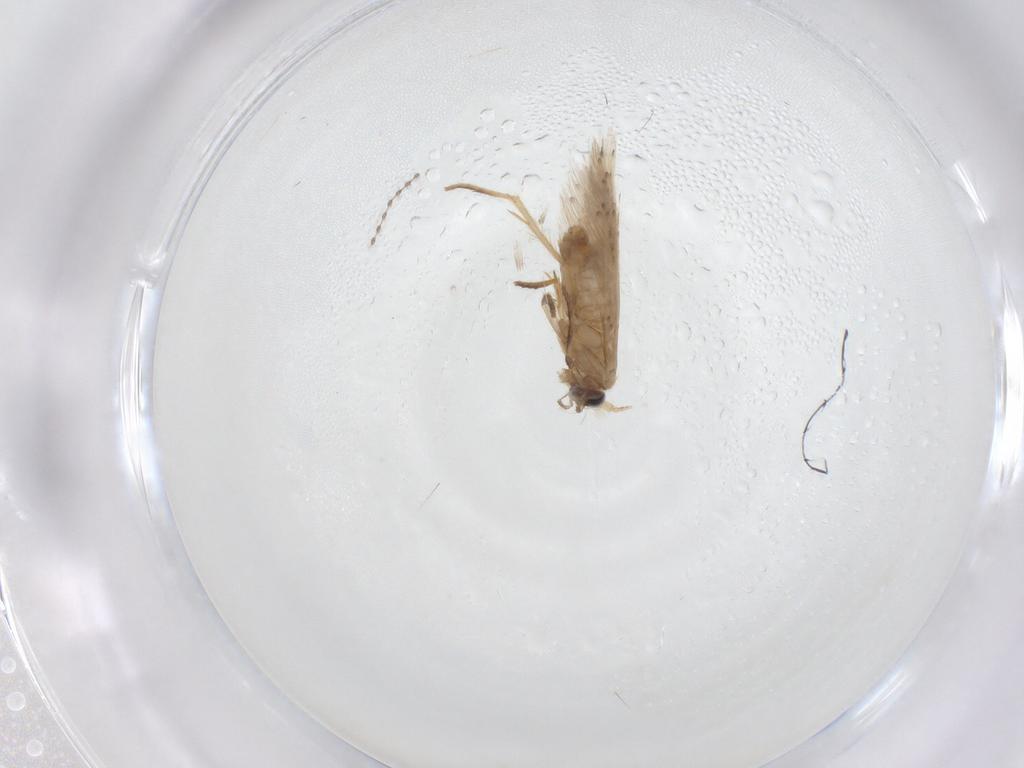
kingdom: Animalia
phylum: Arthropoda
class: Insecta
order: Lepidoptera
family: Nepticulidae
